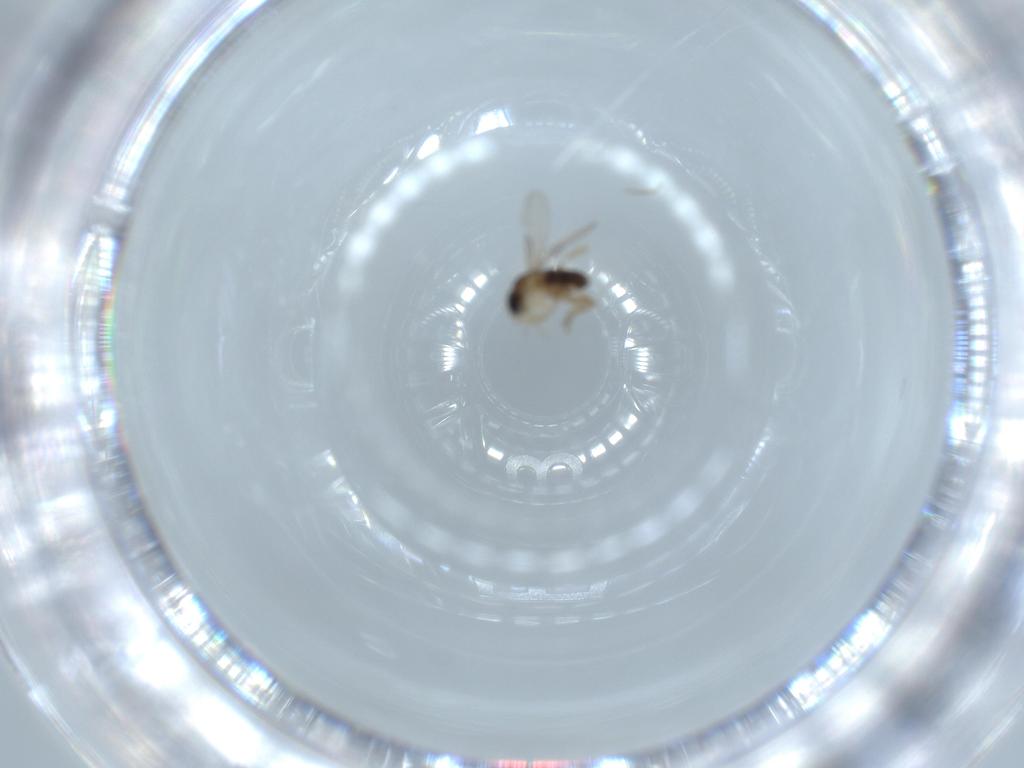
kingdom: Animalia
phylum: Arthropoda
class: Insecta
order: Diptera
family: Phoridae
